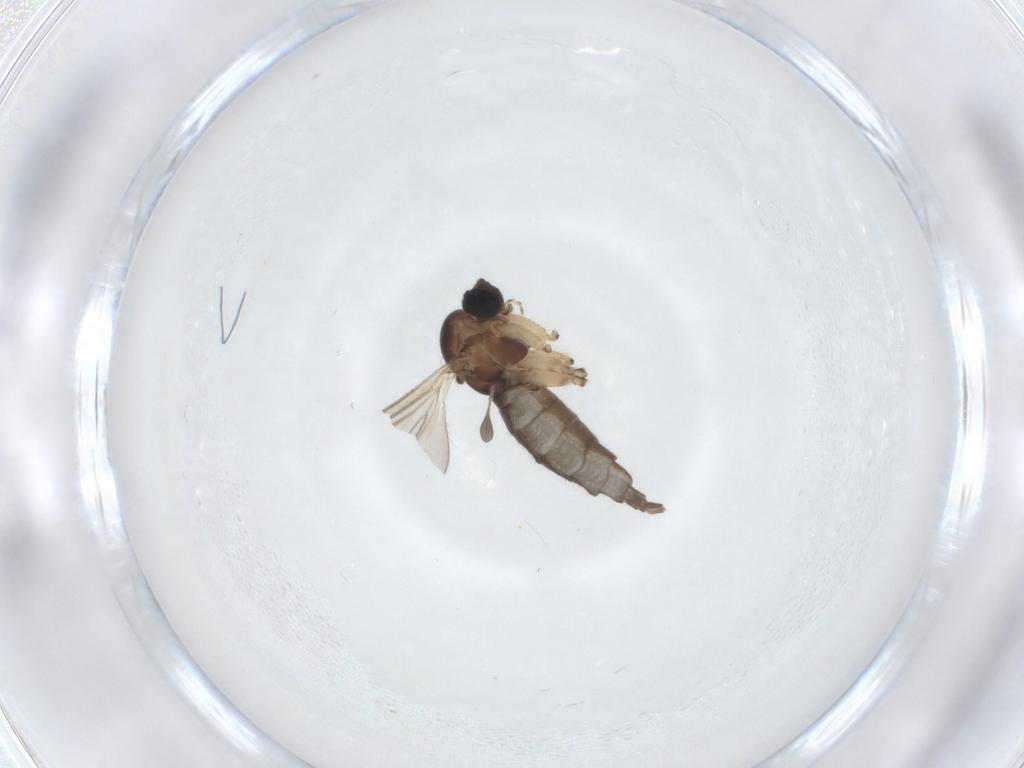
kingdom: Animalia
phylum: Arthropoda
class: Insecta
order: Diptera
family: Sciaridae
